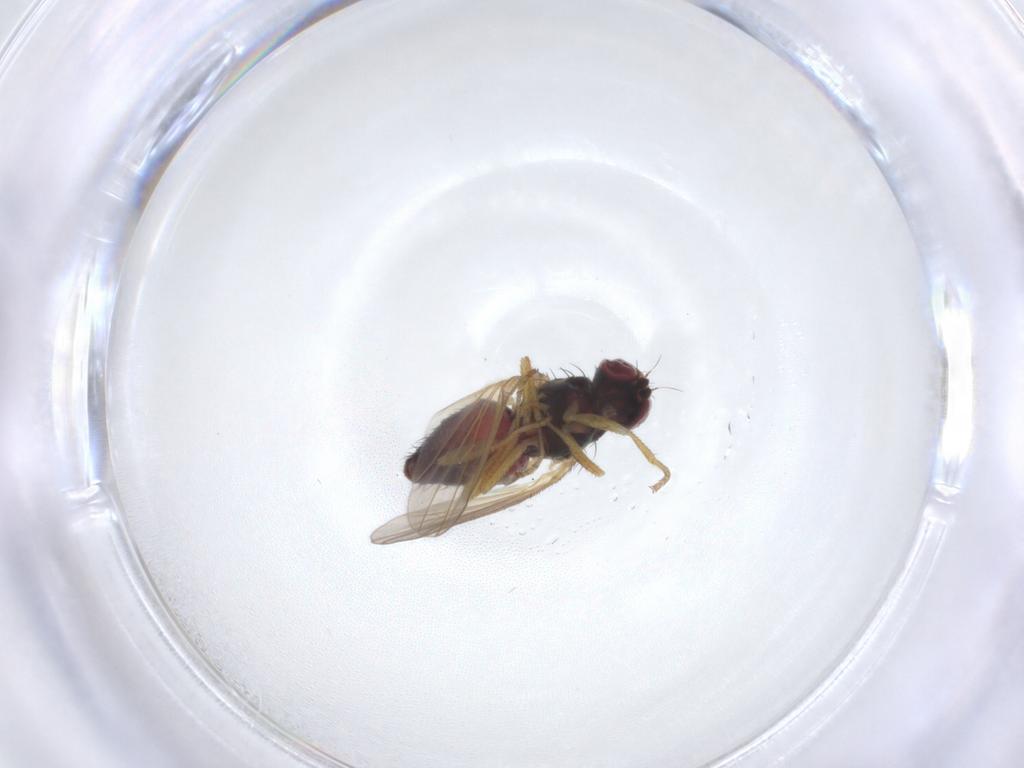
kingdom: Animalia
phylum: Arthropoda
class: Insecta
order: Diptera
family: Heleomyzidae
